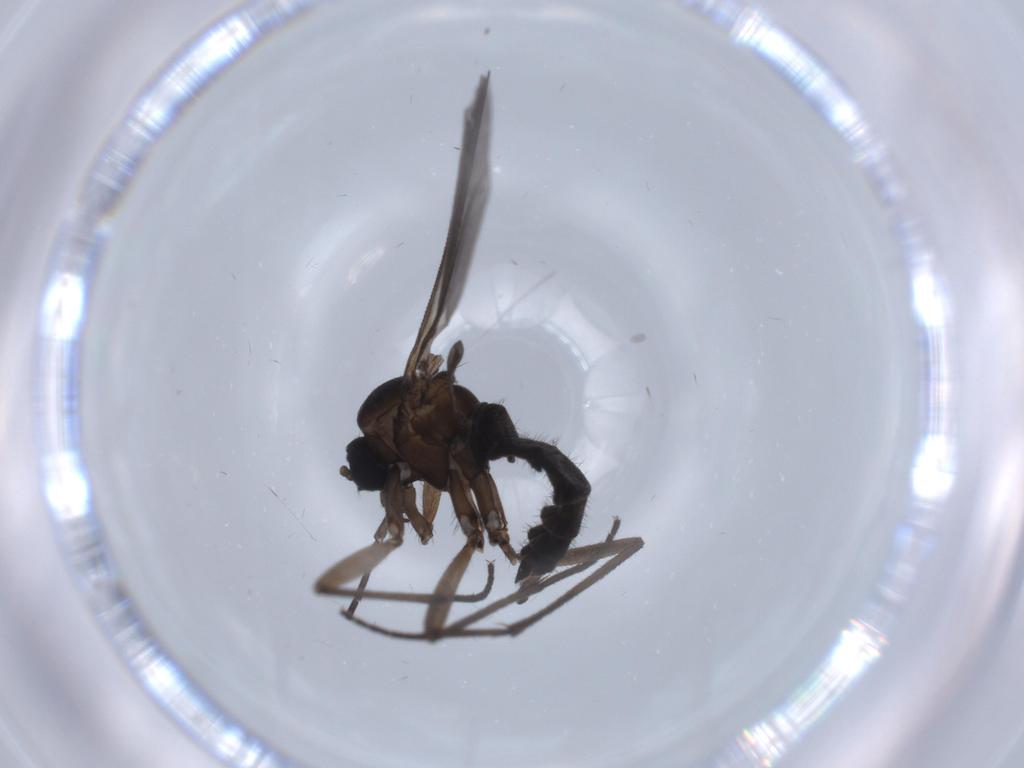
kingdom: Animalia
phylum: Arthropoda
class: Insecta
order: Diptera
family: Sciaridae
